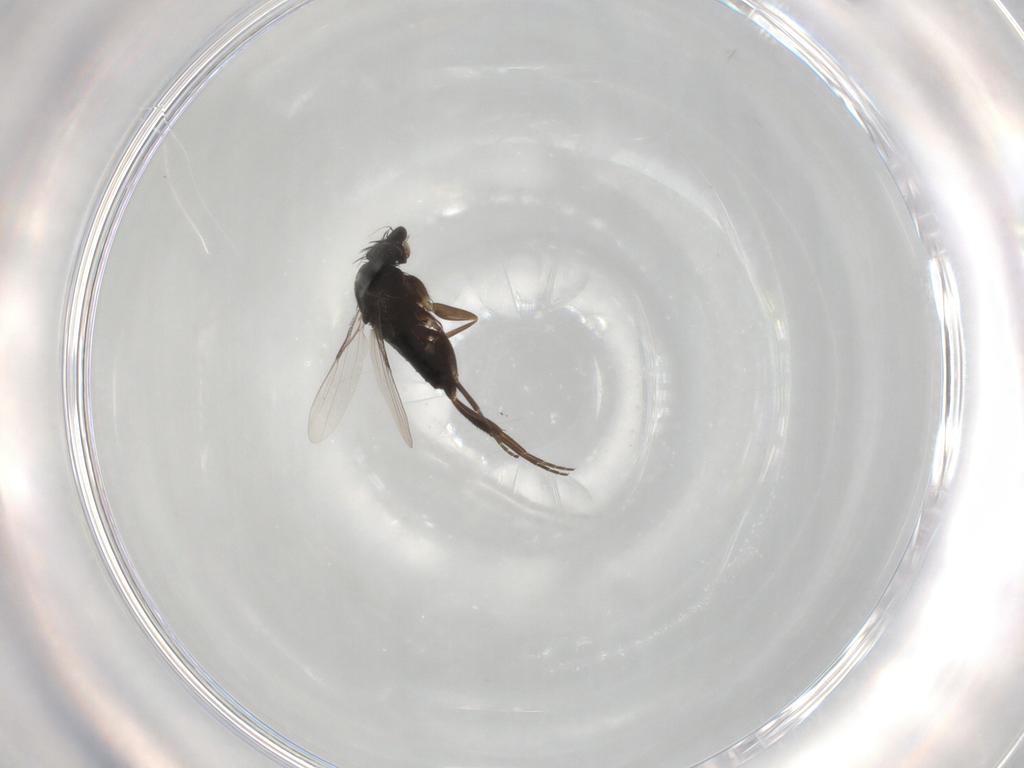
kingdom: Animalia
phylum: Arthropoda
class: Insecta
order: Diptera
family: Phoridae
